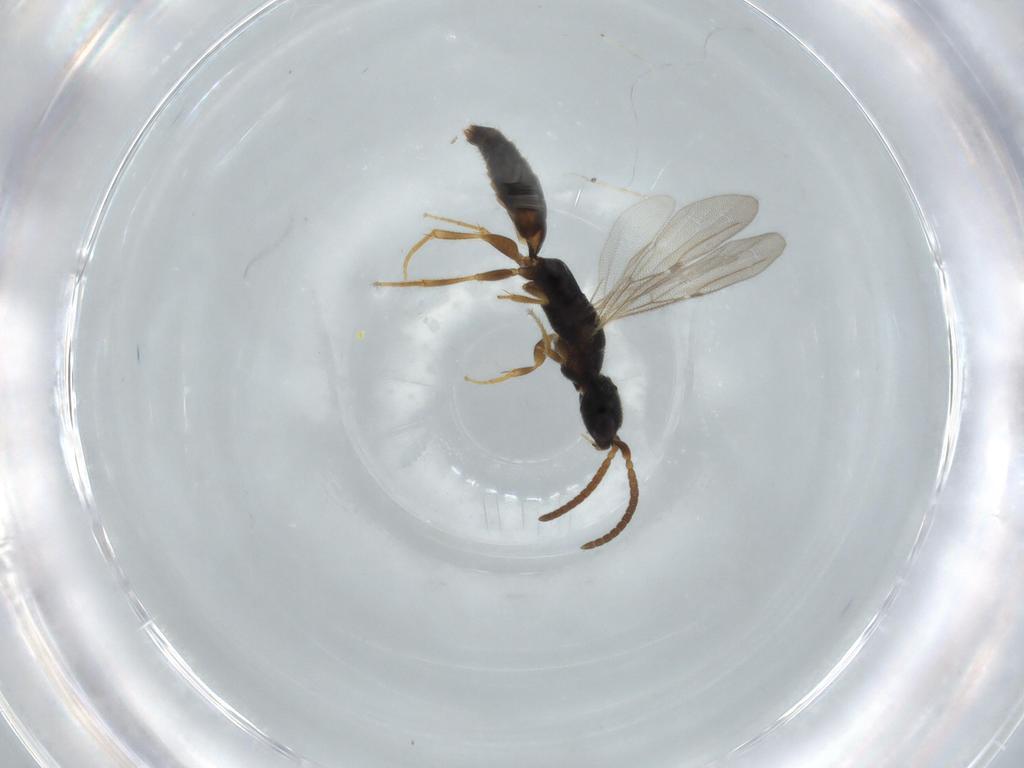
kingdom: Animalia
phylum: Arthropoda
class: Insecta
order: Hymenoptera
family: Bethylidae
